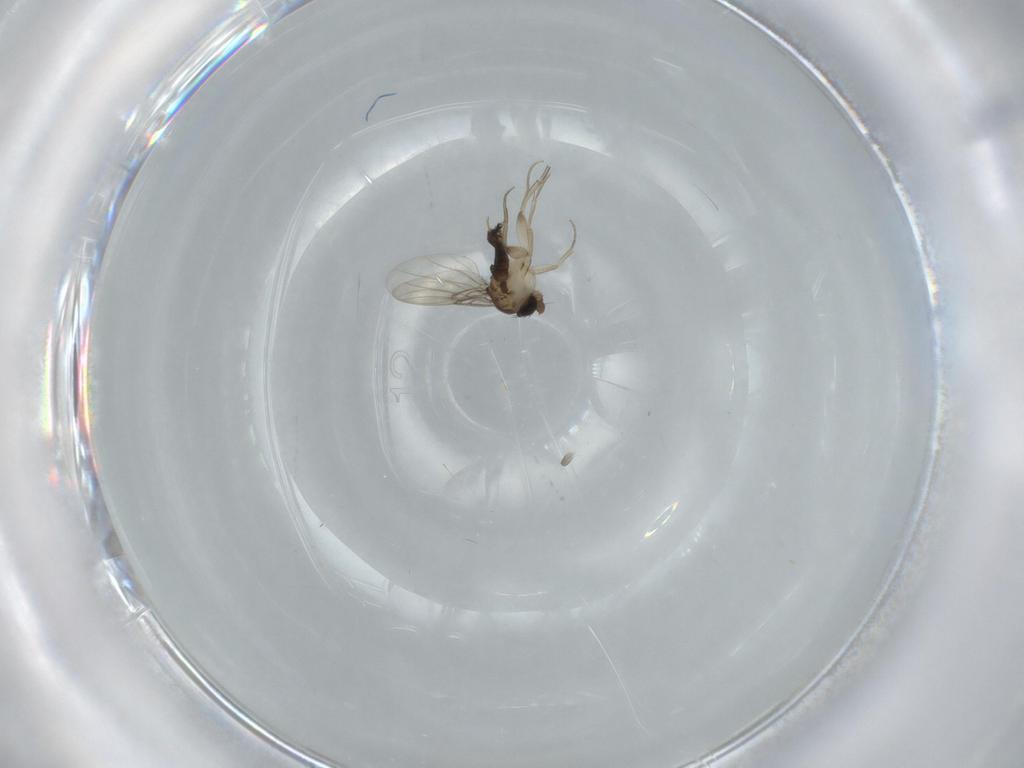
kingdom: Animalia
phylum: Arthropoda
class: Insecta
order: Diptera
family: Phoridae
